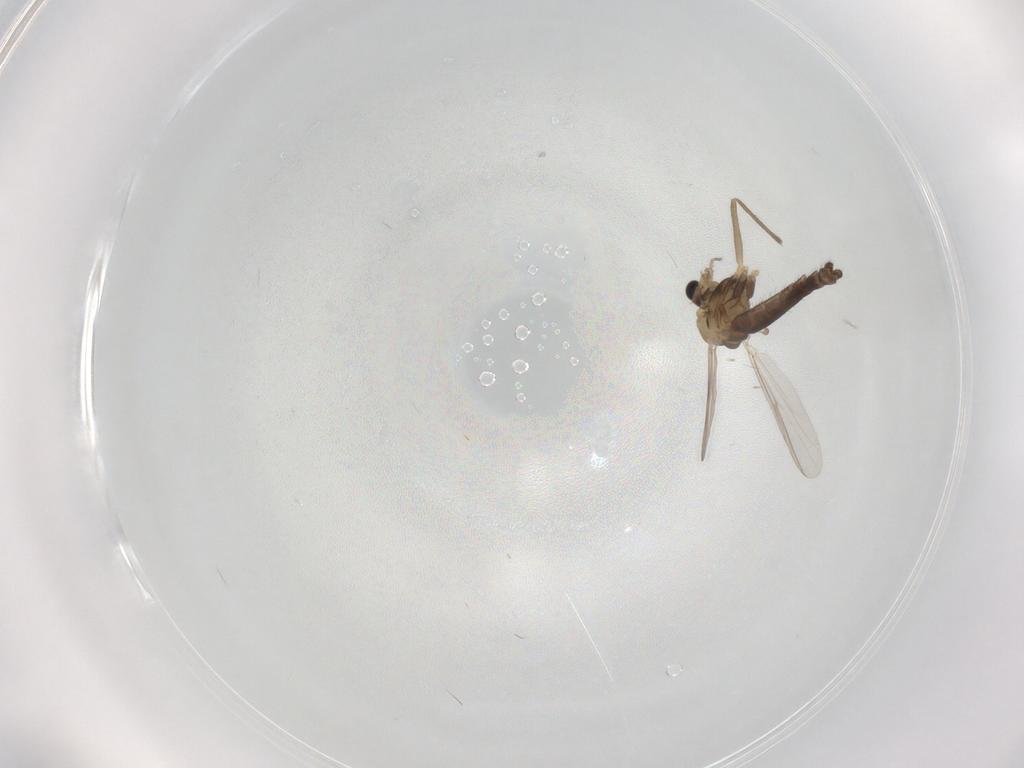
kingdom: Animalia
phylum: Arthropoda
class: Insecta
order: Diptera
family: Chironomidae
